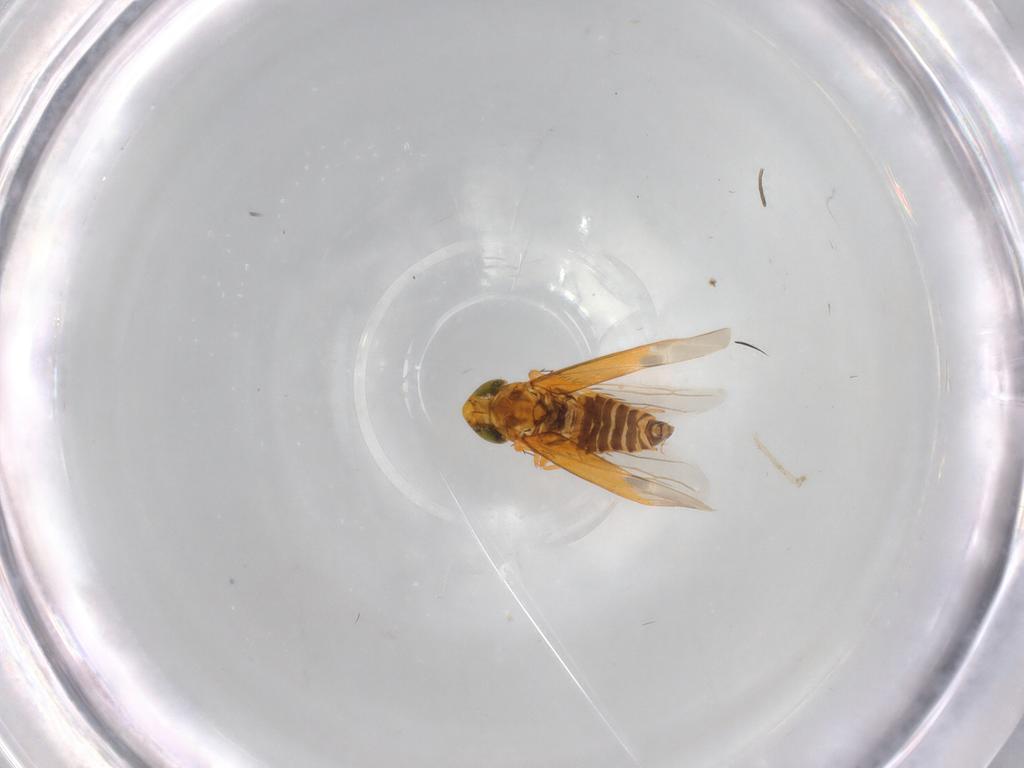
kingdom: Animalia
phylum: Arthropoda
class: Insecta
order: Hemiptera
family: Cicadellidae
